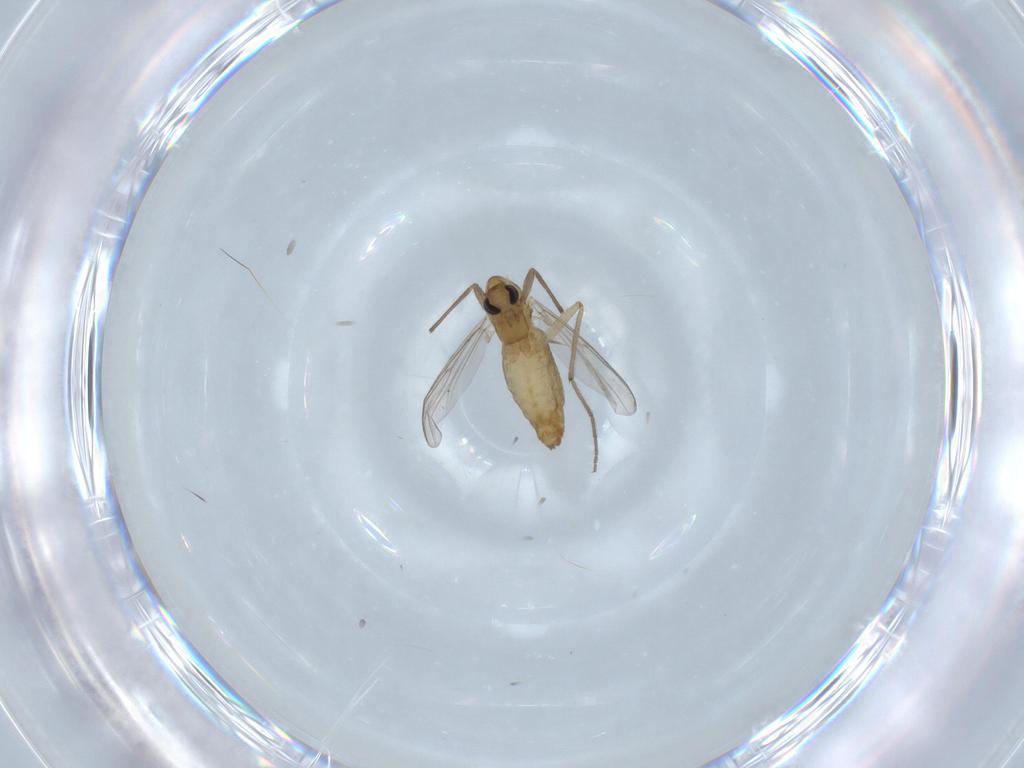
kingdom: Animalia
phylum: Arthropoda
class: Insecta
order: Diptera
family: Chironomidae
